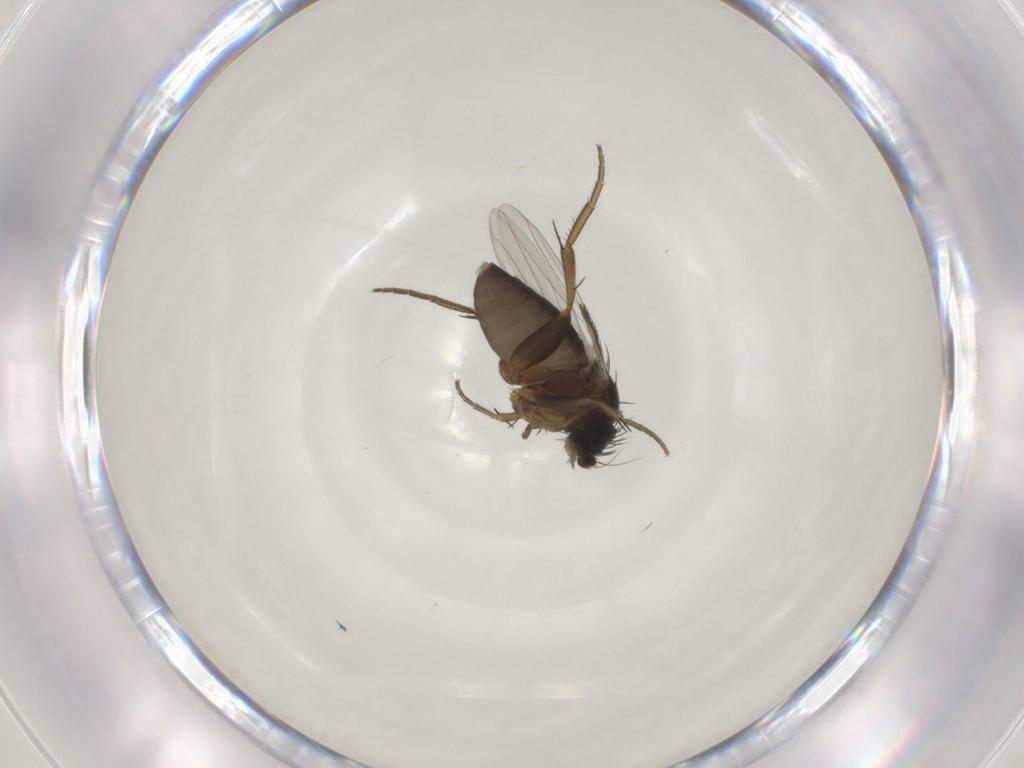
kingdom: Animalia
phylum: Arthropoda
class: Insecta
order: Diptera
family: Phoridae
